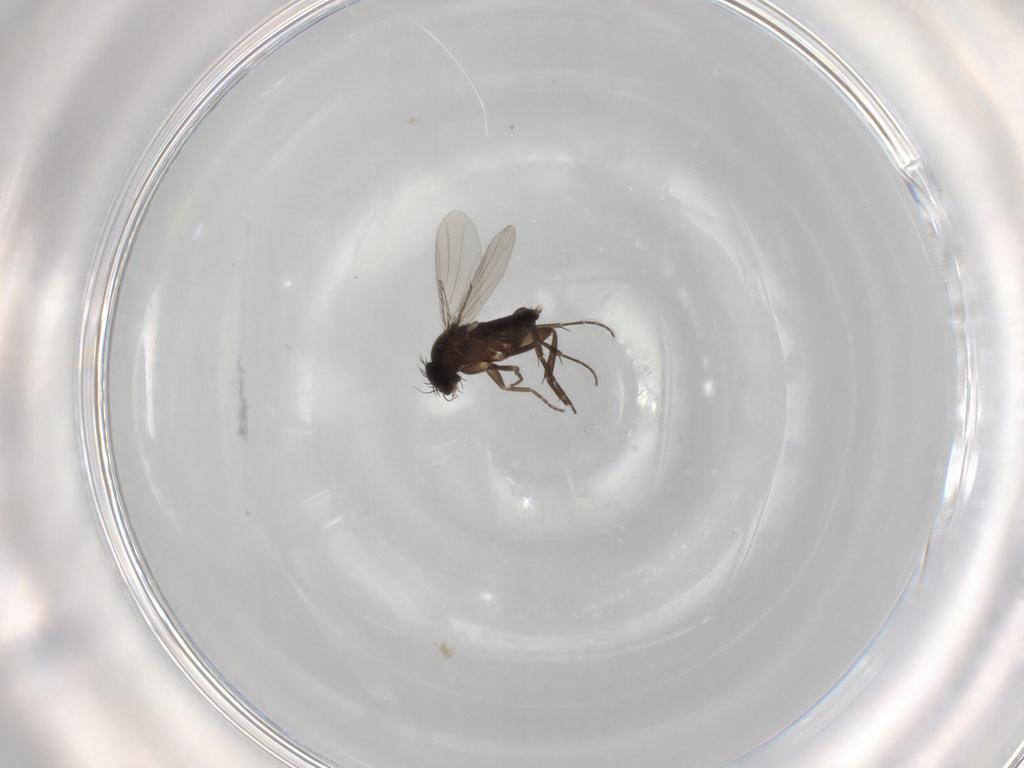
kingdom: Animalia
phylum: Arthropoda
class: Insecta
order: Diptera
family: Phoridae
